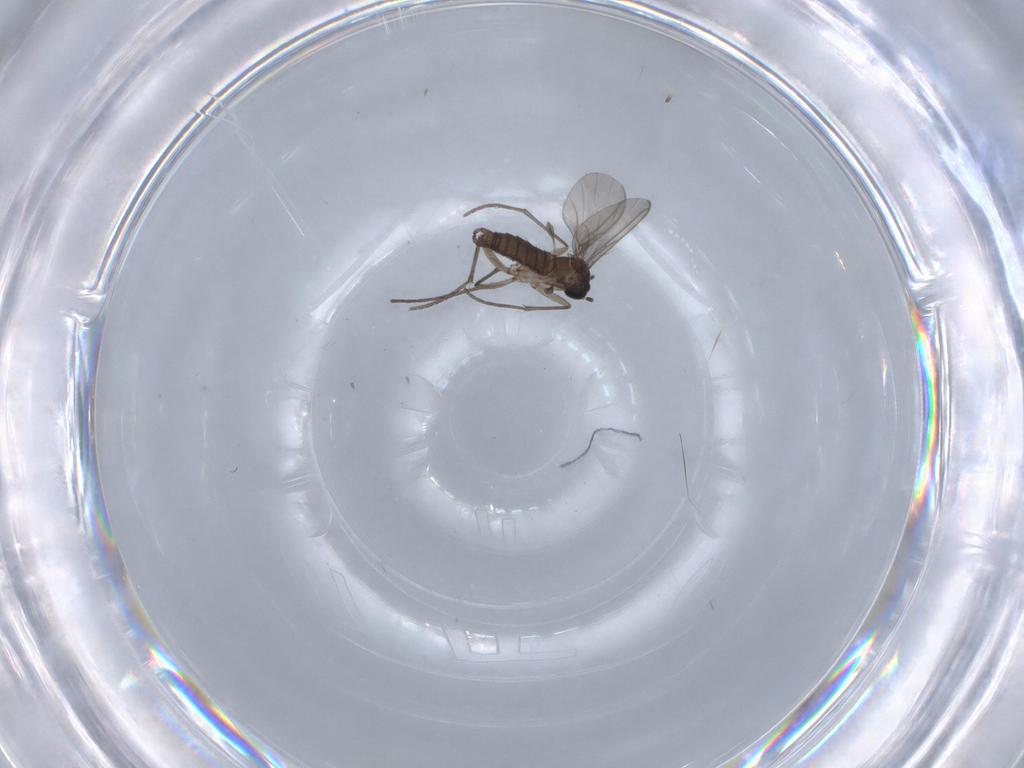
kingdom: Animalia
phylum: Arthropoda
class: Insecta
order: Diptera
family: Sciaridae
